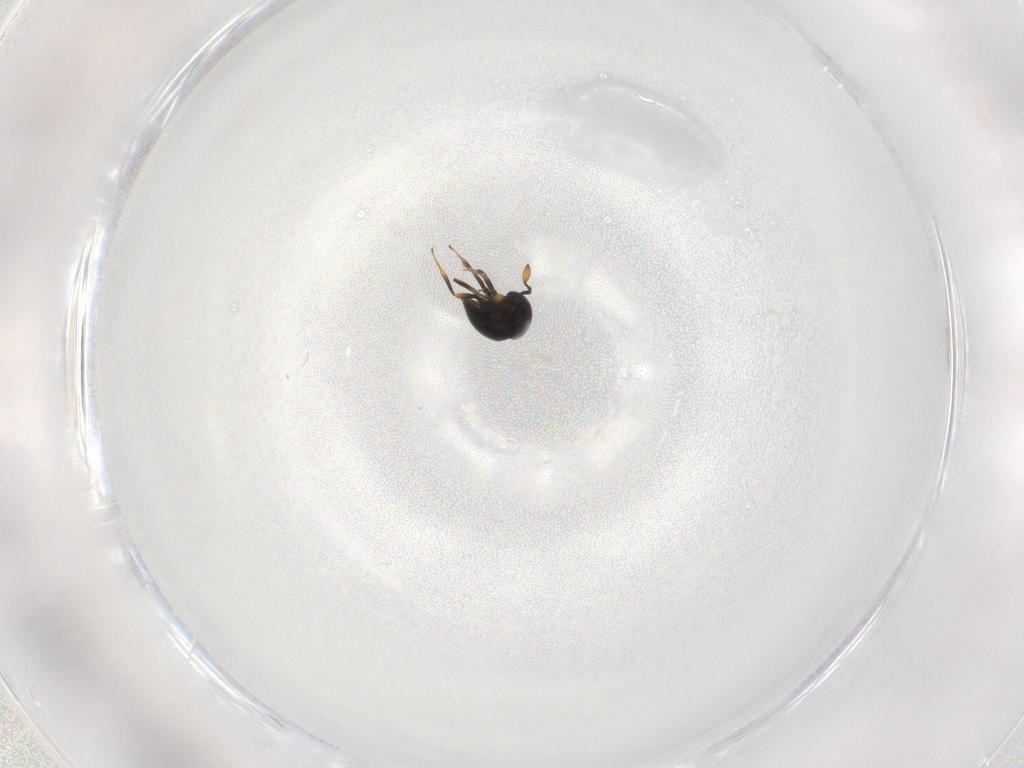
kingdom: Animalia
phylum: Arthropoda
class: Insecta
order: Hymenoptera
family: Scelionidae
